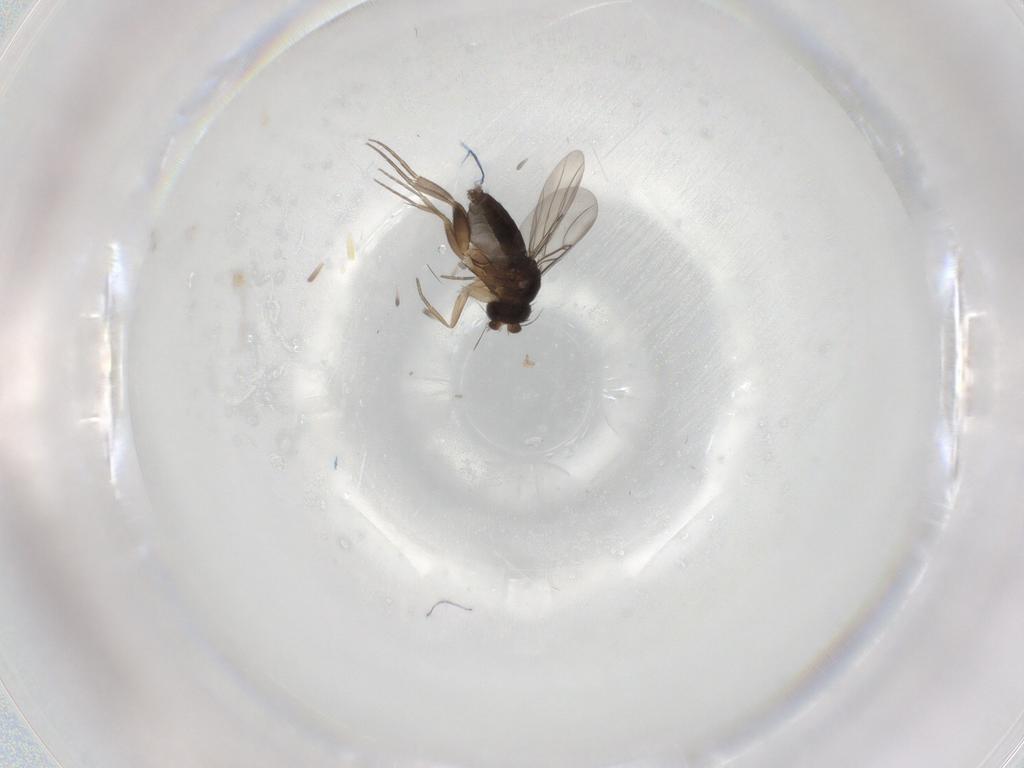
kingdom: Animalia
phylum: Arthropoda
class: Insecta
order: Diptera
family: Phoridae
